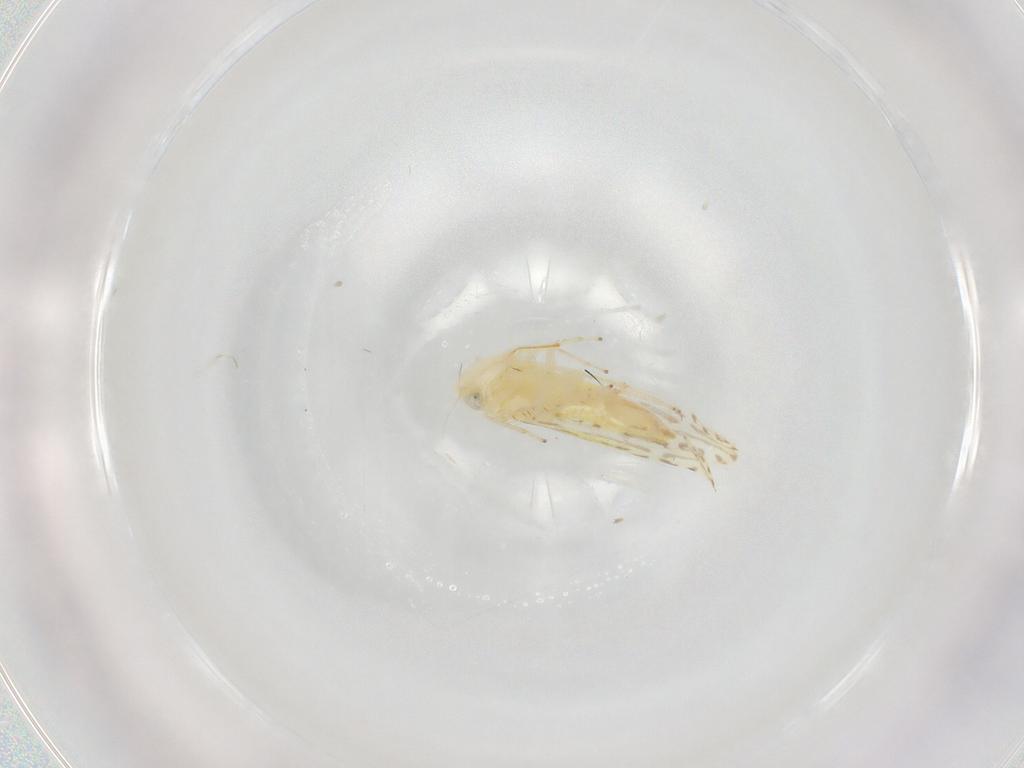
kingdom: Animalia
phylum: Arthropoda
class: Insecta
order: Hemiptera
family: Cicadellidae
